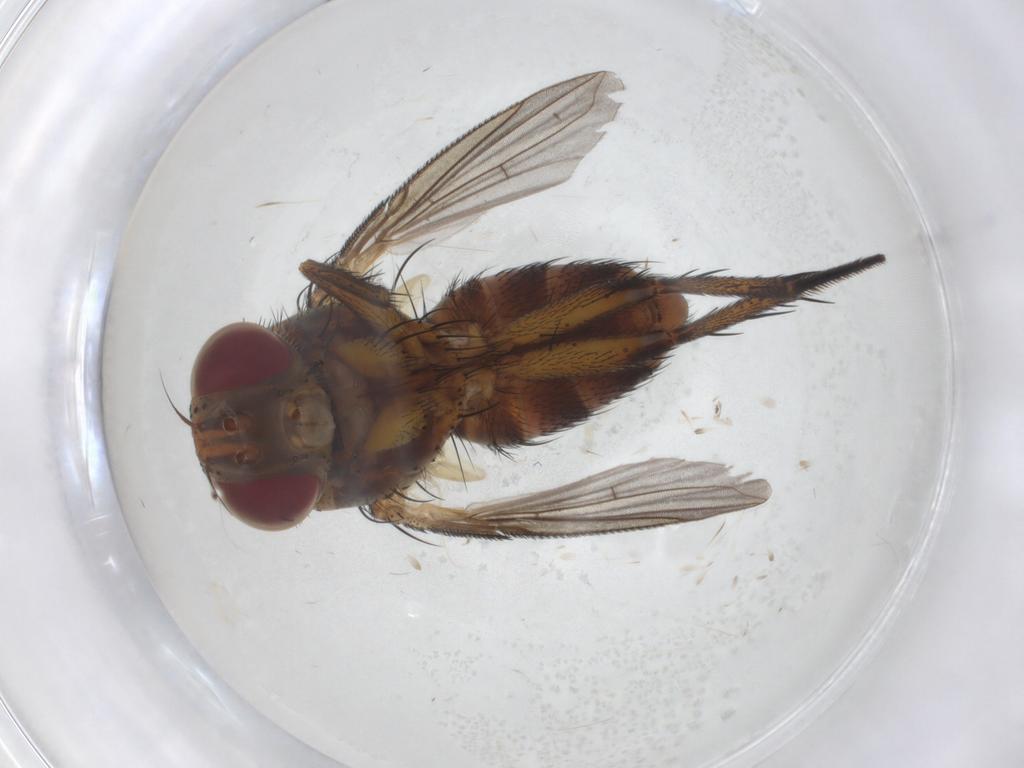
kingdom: Animalia
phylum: Arthropoda
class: Insecta
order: Diptera
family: Tachinidae
